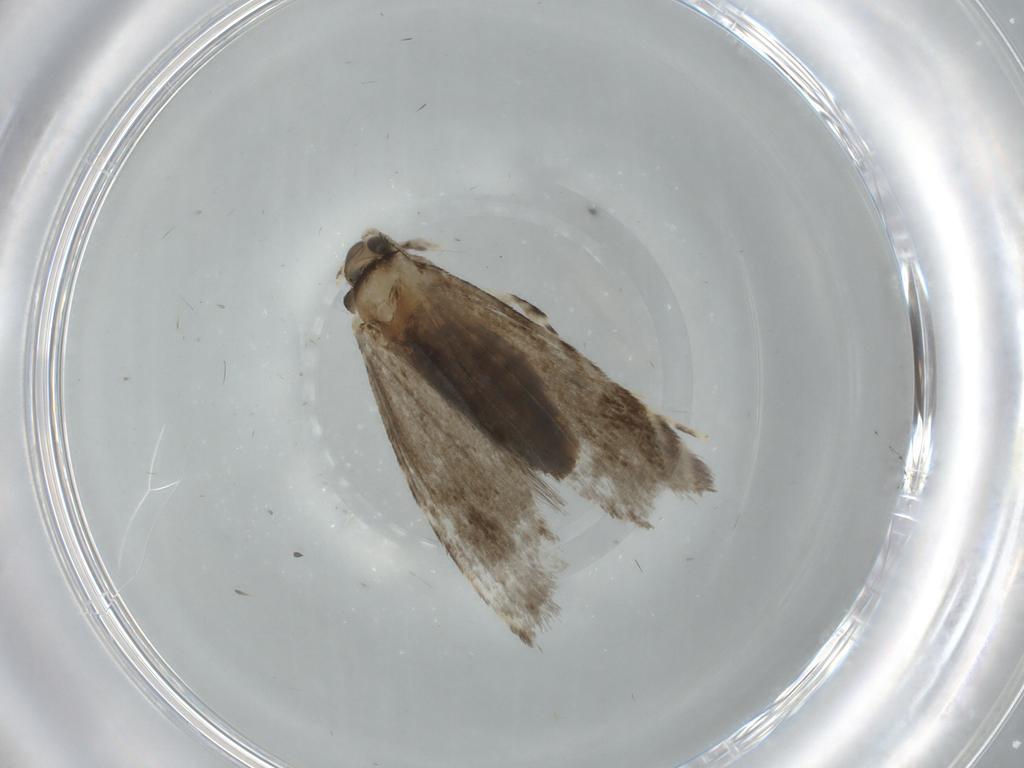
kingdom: Animalia
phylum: Arthropoda
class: Insecta
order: Lepidoptera
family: Tineidae
